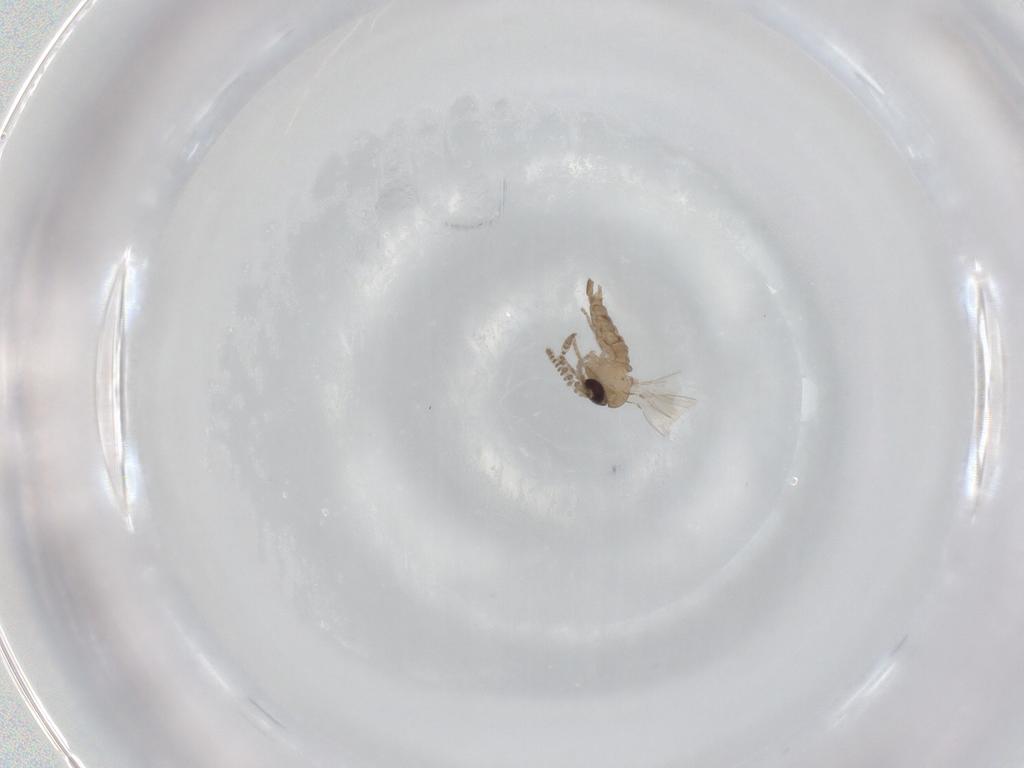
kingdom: Animalia
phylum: Arthropoda
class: Insecta
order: Diptera
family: Psychodidae
